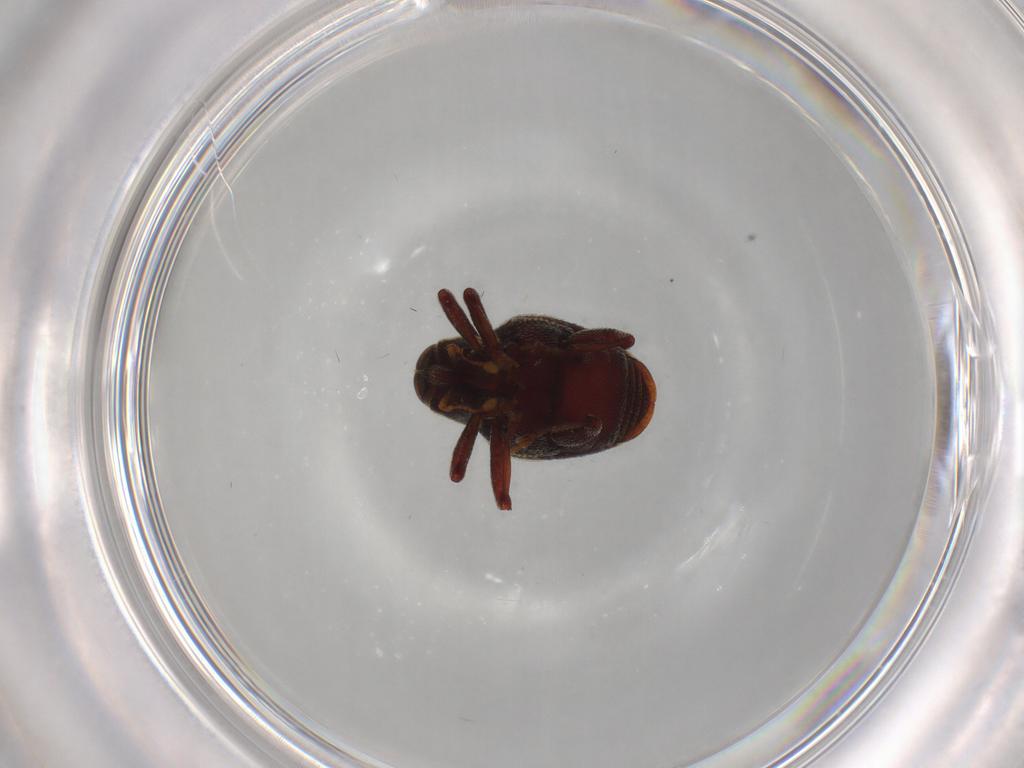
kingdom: Animalia
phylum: Arthropoda
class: Insecta
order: Coleoptera
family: Curculionidae
